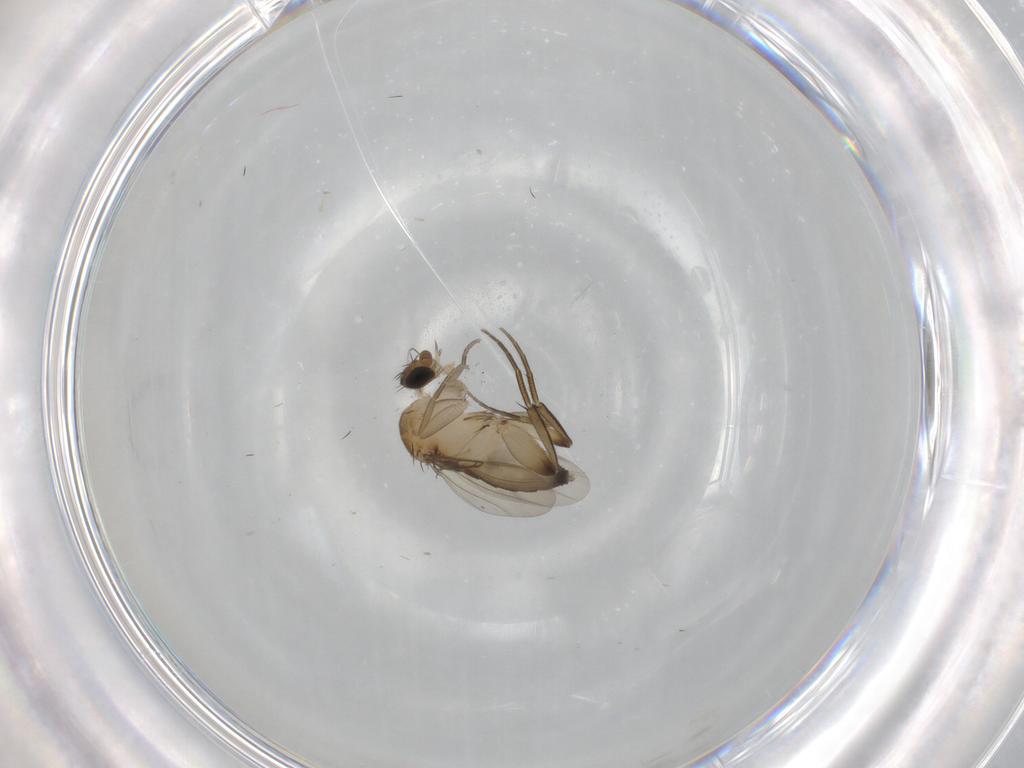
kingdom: Animalia
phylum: Arthropoda
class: Insecta
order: Diptera
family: Phoridae
